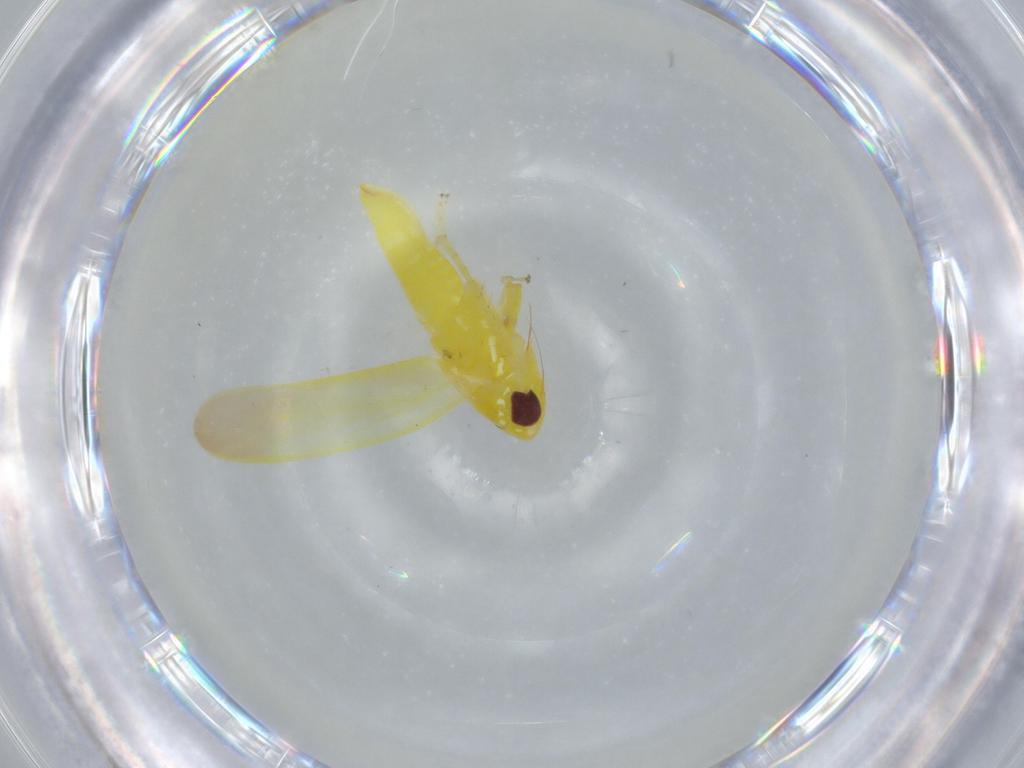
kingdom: Animalia
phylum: Arthropoda
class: Insecta
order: Hemiptera
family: Cicadellidae
